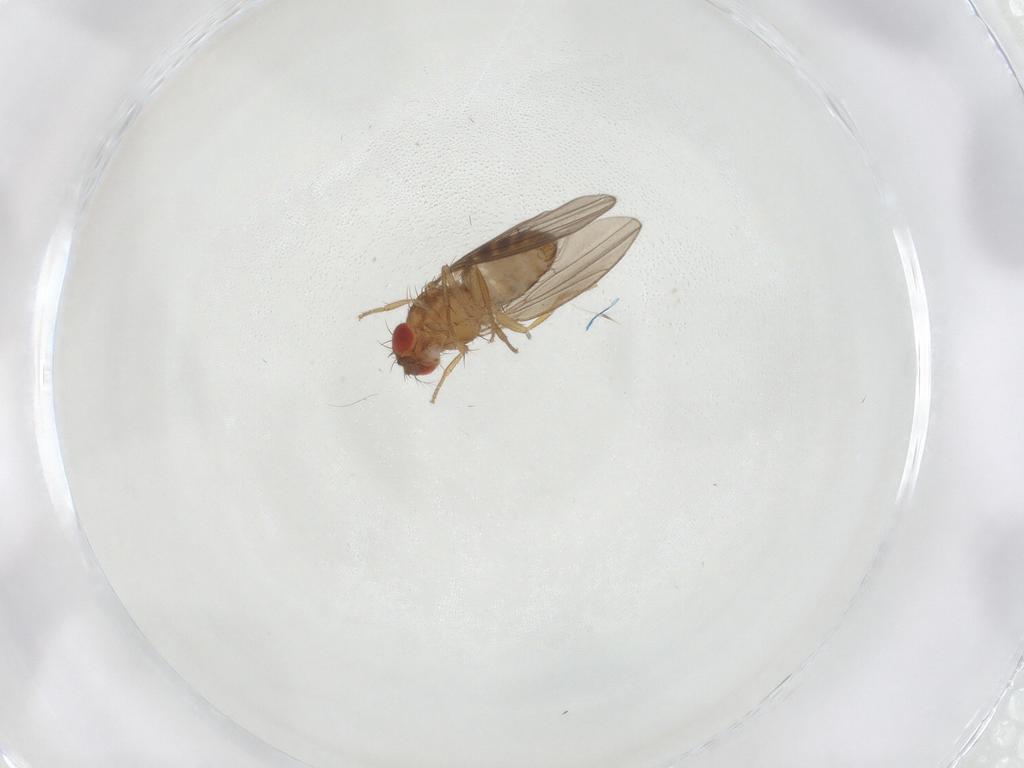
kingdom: Animalia
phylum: Arthropoda
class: Insecta
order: Diptera
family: Drosophilidae
